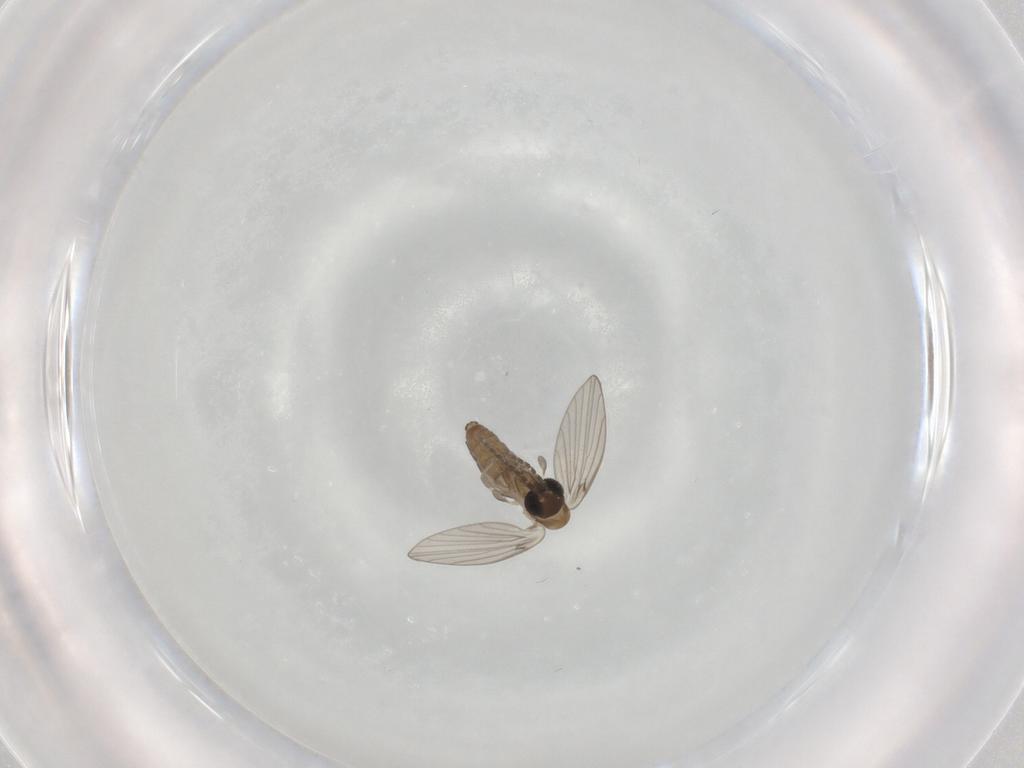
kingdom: Animalia
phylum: Arthropoda
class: Insecta
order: Diptera
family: Psychodidae
